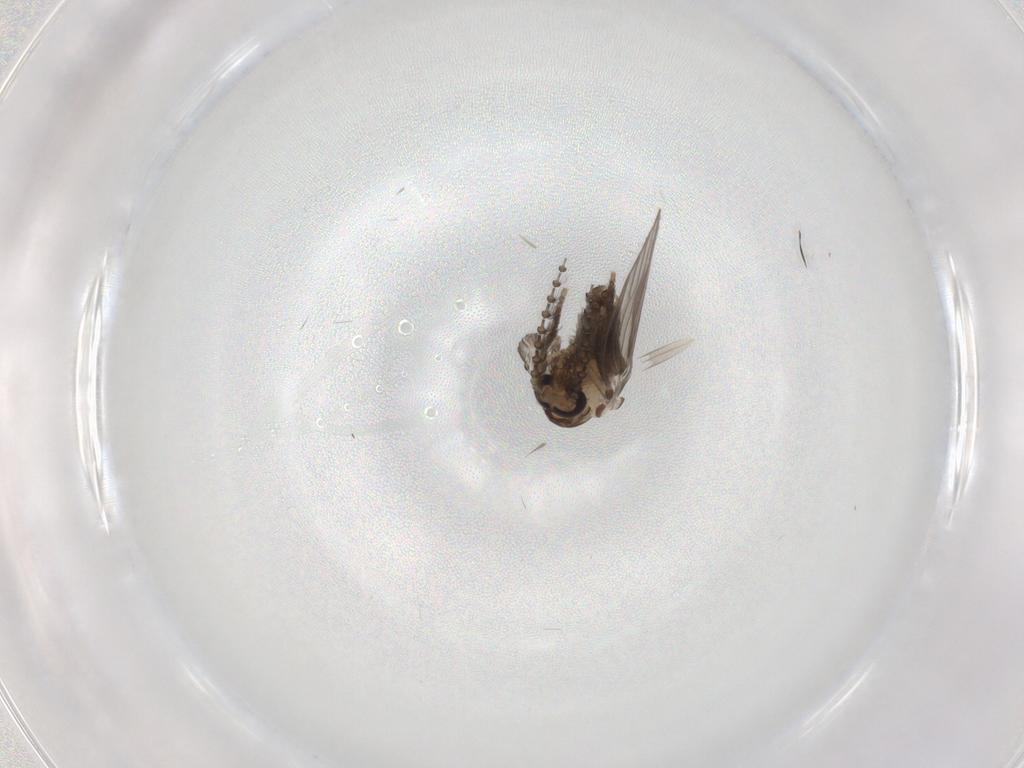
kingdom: Animalia
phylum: Arthropoda
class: Insecta
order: Diptera
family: Psychodidae
